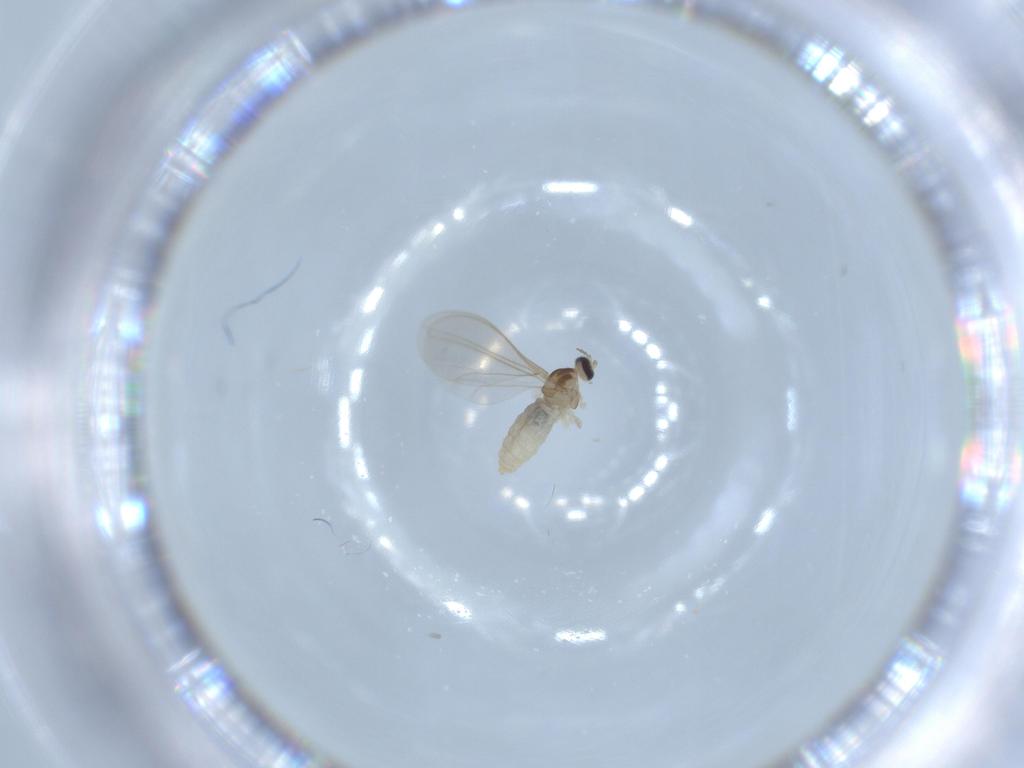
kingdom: Animalia
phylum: Arthropoda
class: Insecta
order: Diptera
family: Cecidomyiidae
